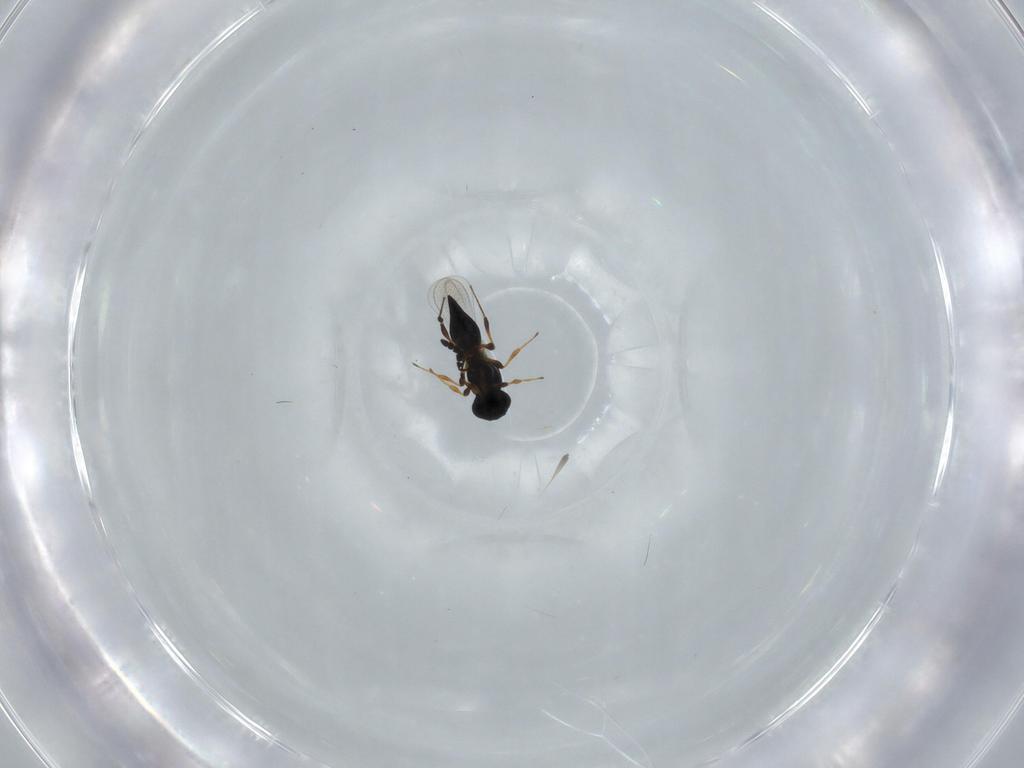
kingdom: Animalia
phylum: Arthropoda
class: Insecta
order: Hymenoptera
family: Platygastridae
